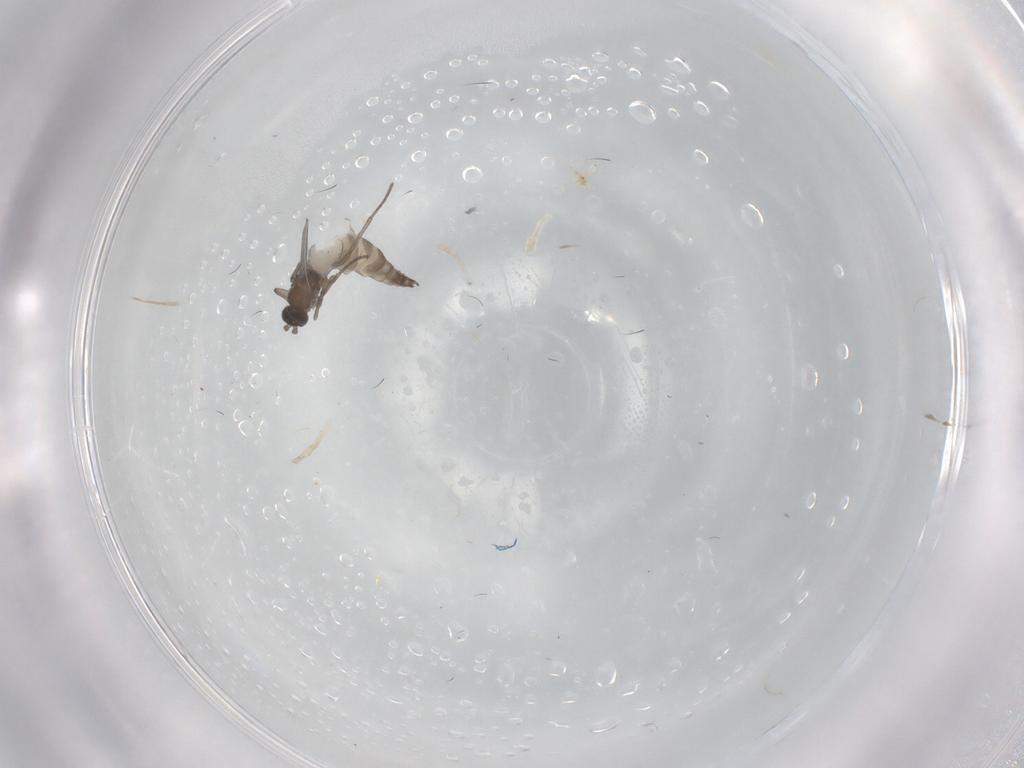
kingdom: Animalia
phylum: Arthropoda
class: Insecta
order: Diptera
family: Sciaridae
